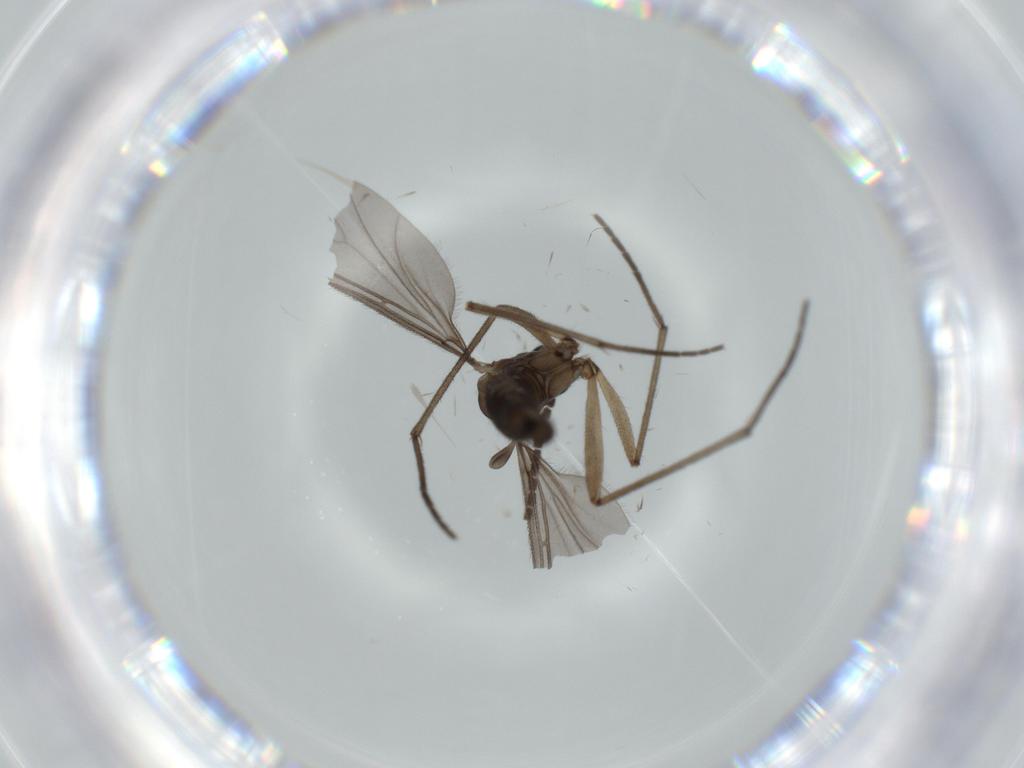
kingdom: Animalia
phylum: Arthropoda
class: Insecta
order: Diptera
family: Sciaridae
